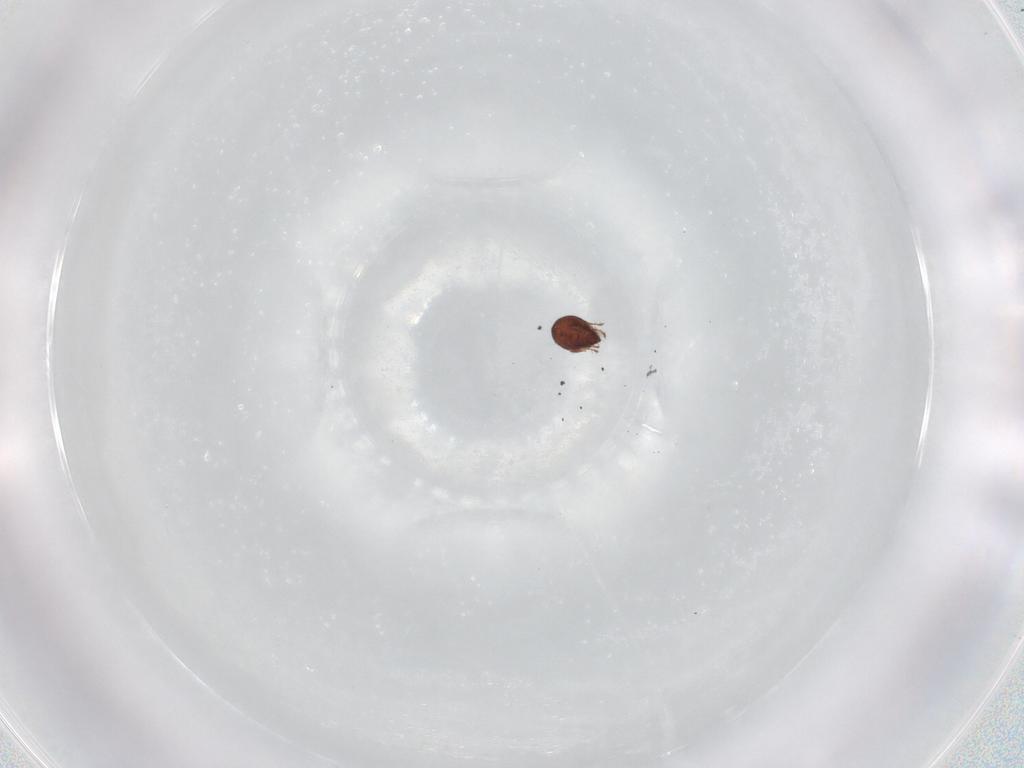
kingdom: Animalia
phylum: Arthropoda
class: Arachnida
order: Sarcoptiformes
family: Ceratozetidae
